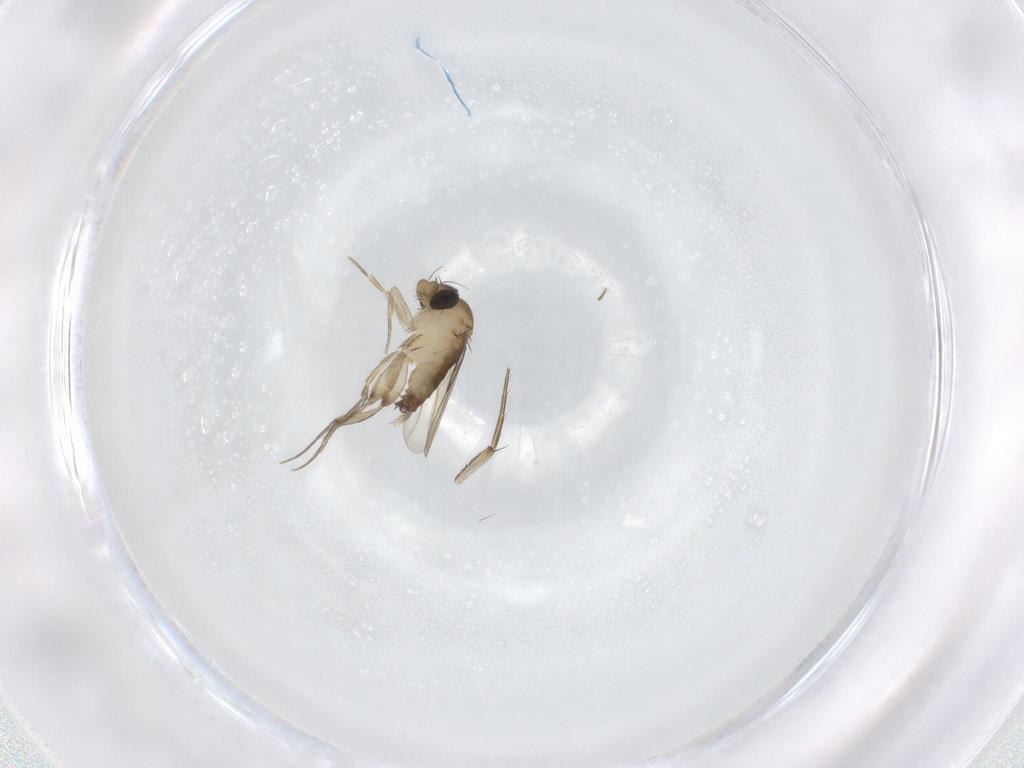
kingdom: Animalia
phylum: Arthropoda
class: Insecta
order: Diptera
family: Phoridae
